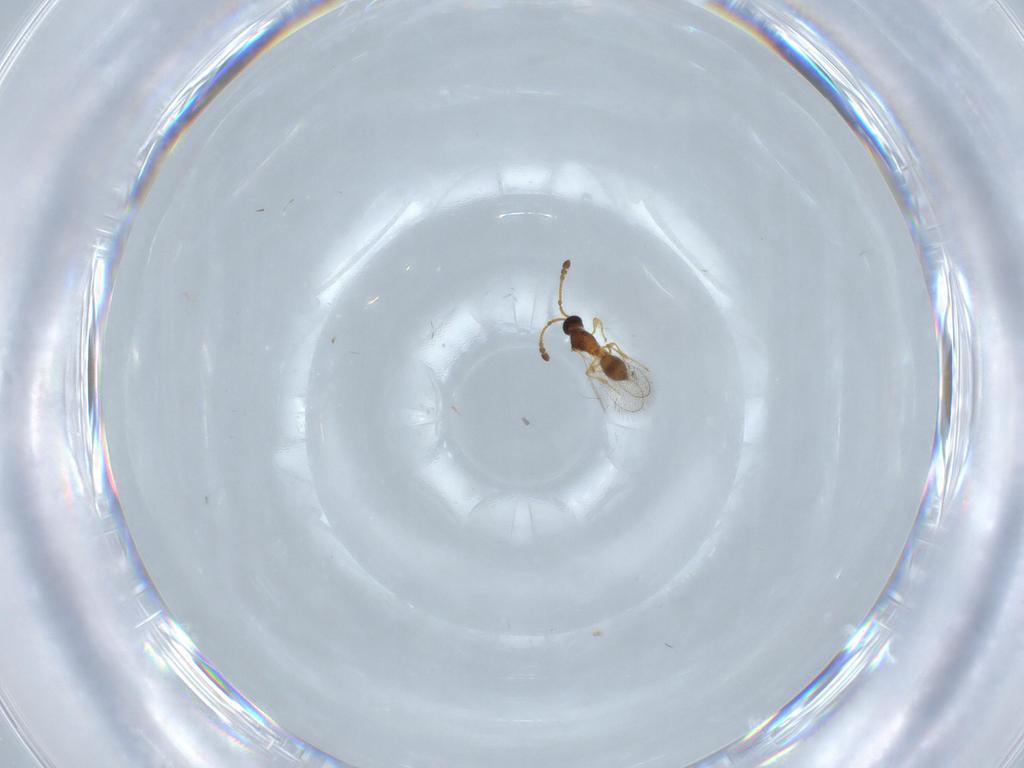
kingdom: Animalia
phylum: Arthropoda
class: Insecta
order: Hymenoptera
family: Diapriidae
